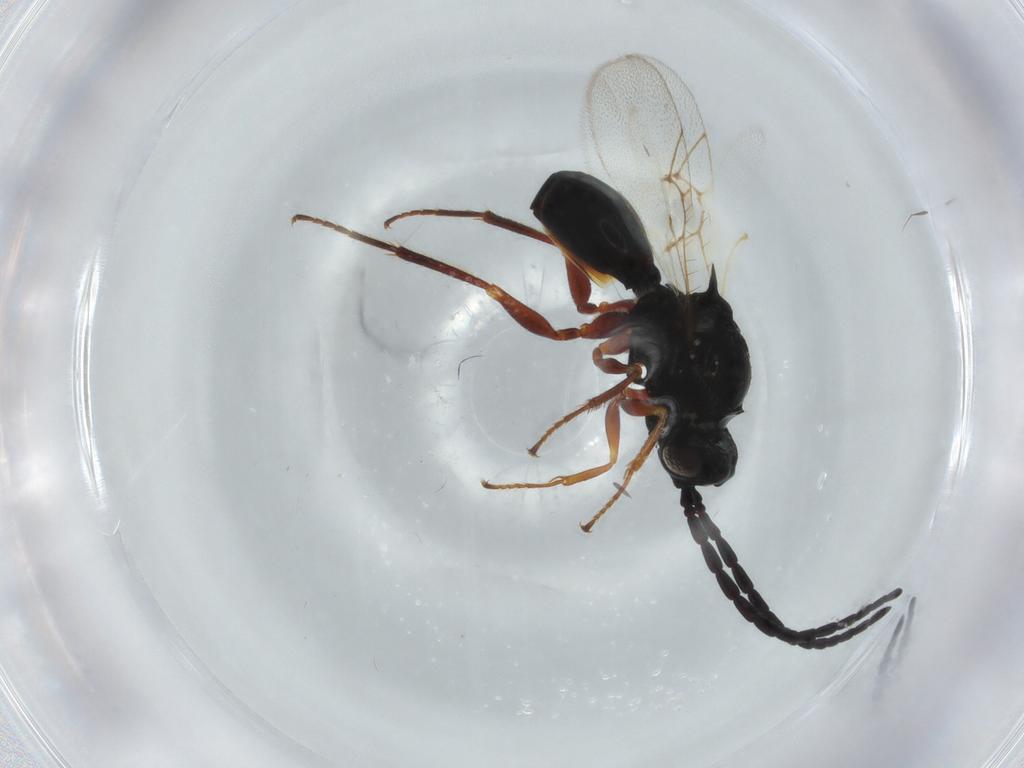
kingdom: Animalia
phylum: Arthropoda
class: Insecta
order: Hymenoptera
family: Figitidae
